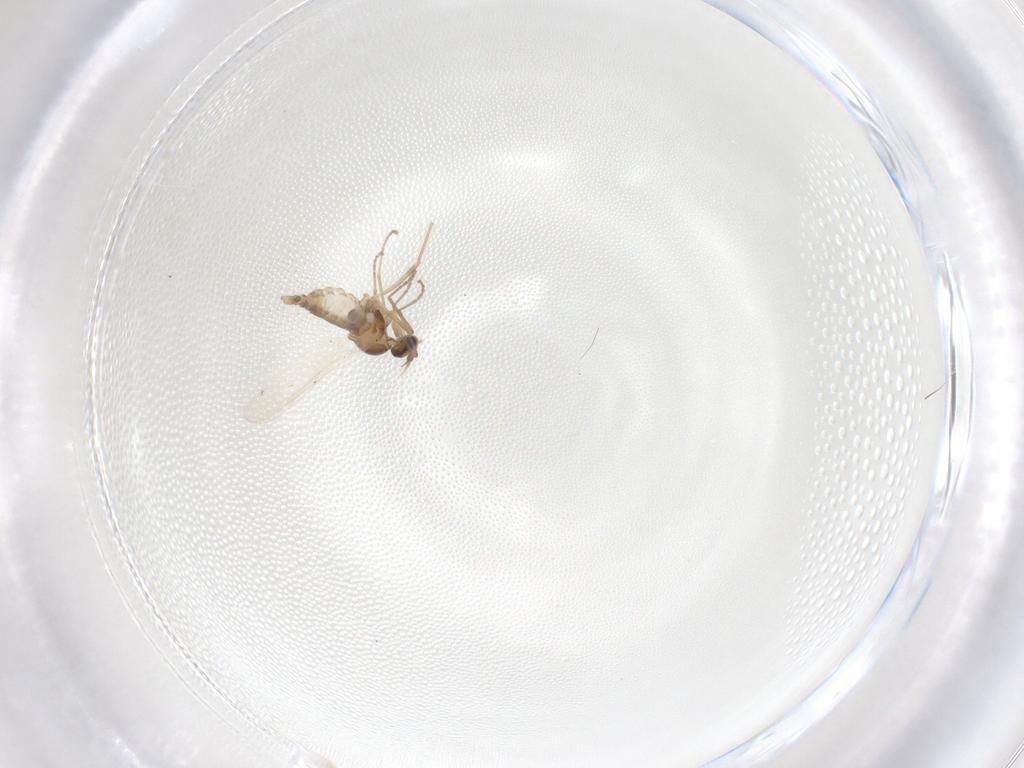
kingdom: Animalia
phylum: Arthropoda
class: Insecta
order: Diptera
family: Cecidomyiidae
